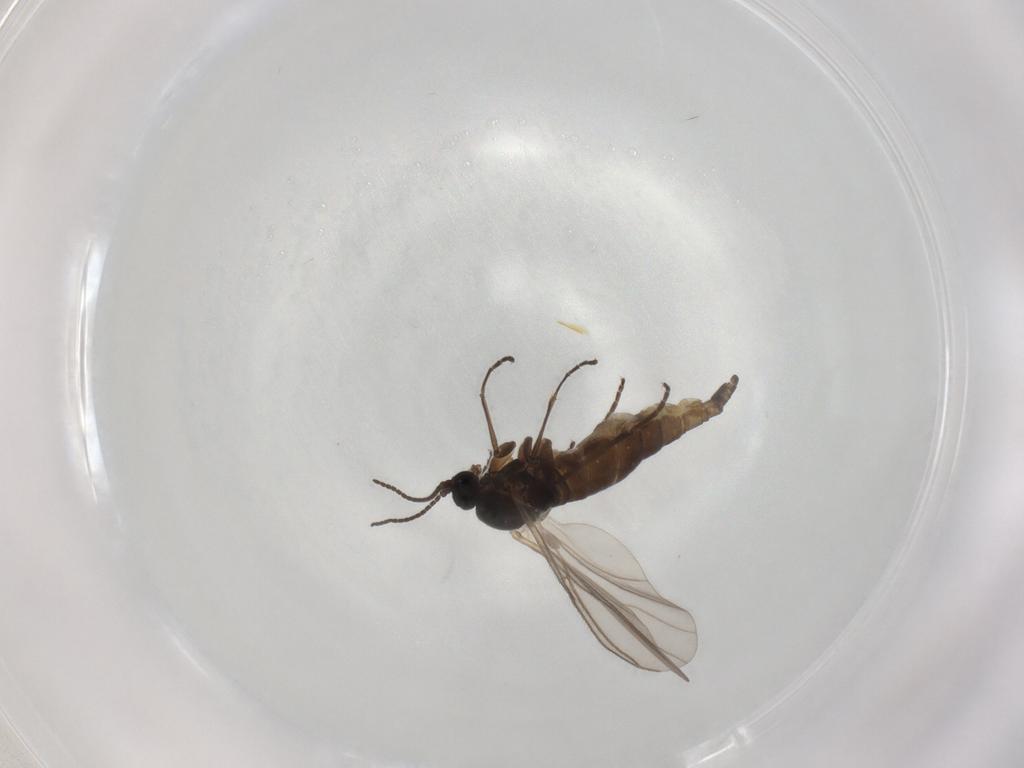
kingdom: Animalia
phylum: Arthropoda
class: Insecta
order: Diptera
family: Sciaridae
